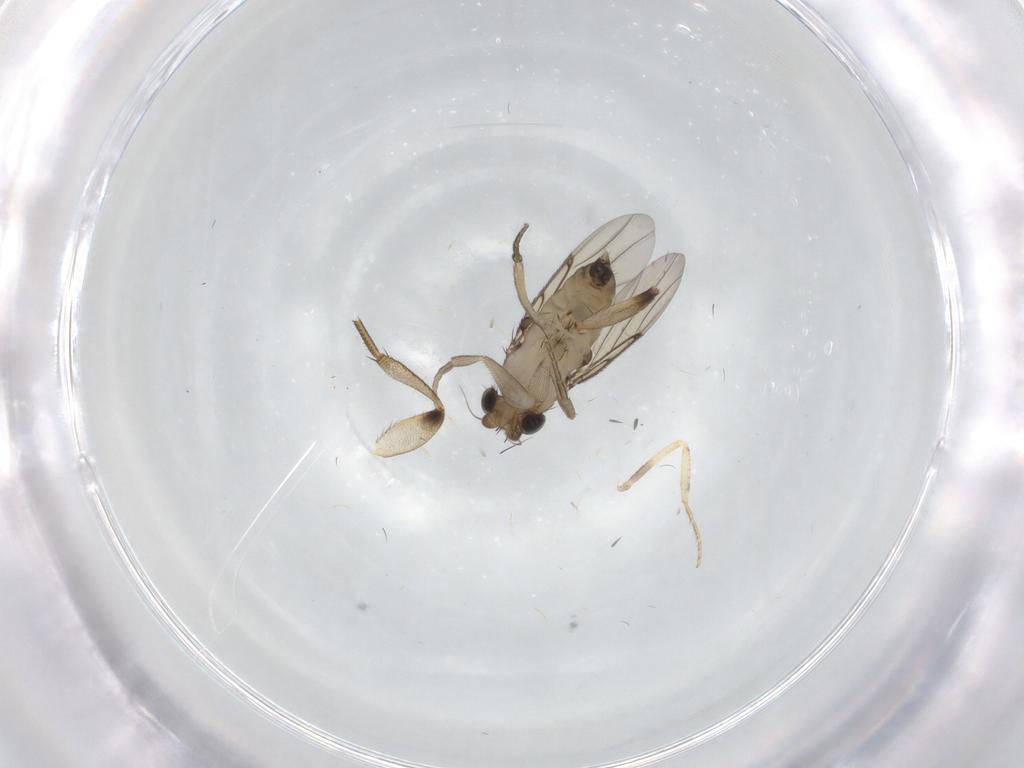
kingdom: Animalia
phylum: Arthropoda
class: Insecta
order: Diptera
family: Phoridae
